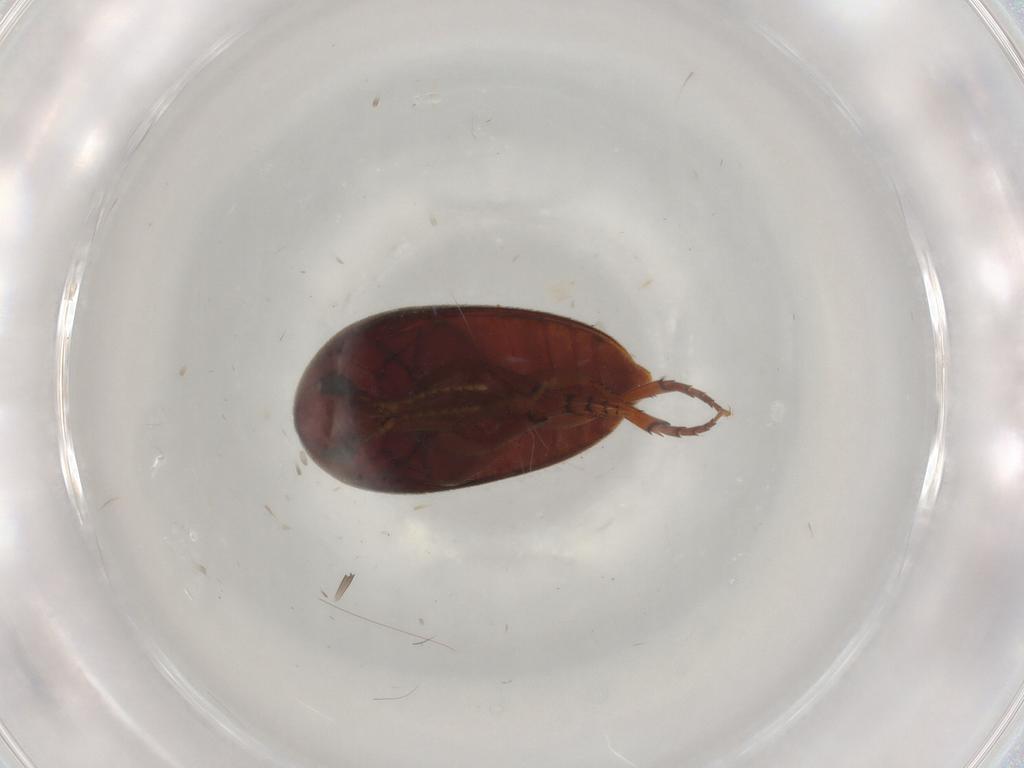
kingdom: Animalia
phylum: Arthropoda
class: Insecta
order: Coleoptera
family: Eucinetidae
